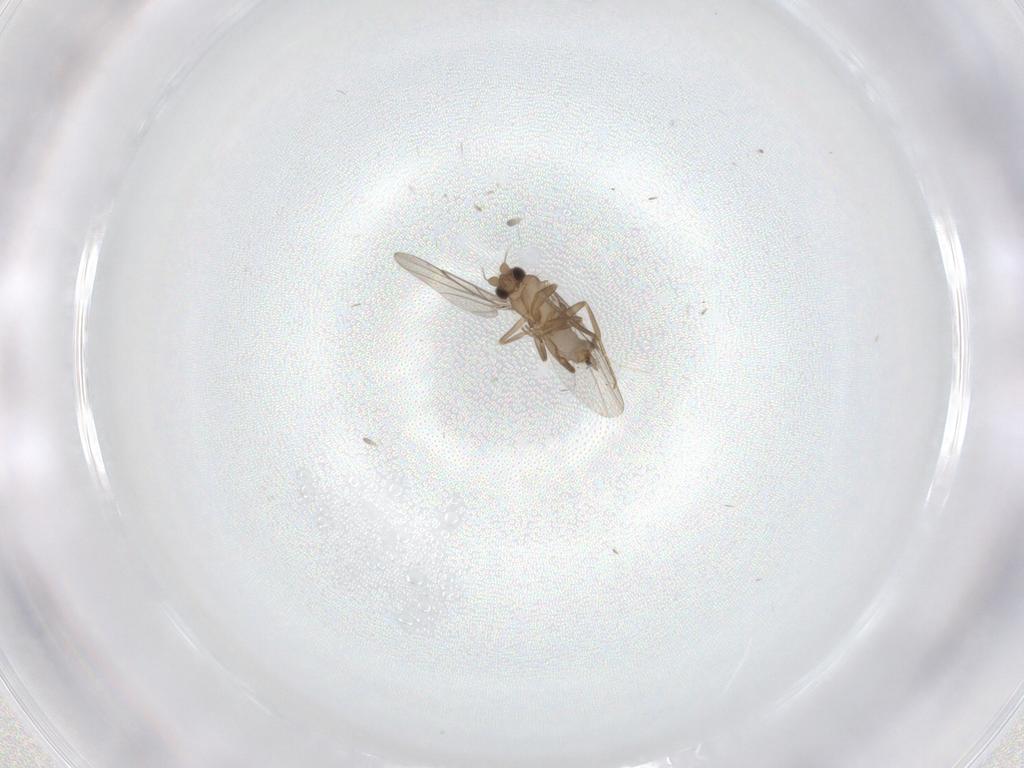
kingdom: Animalia
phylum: Arthropoda
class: Insecta
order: Diptera
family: Psychodidae
